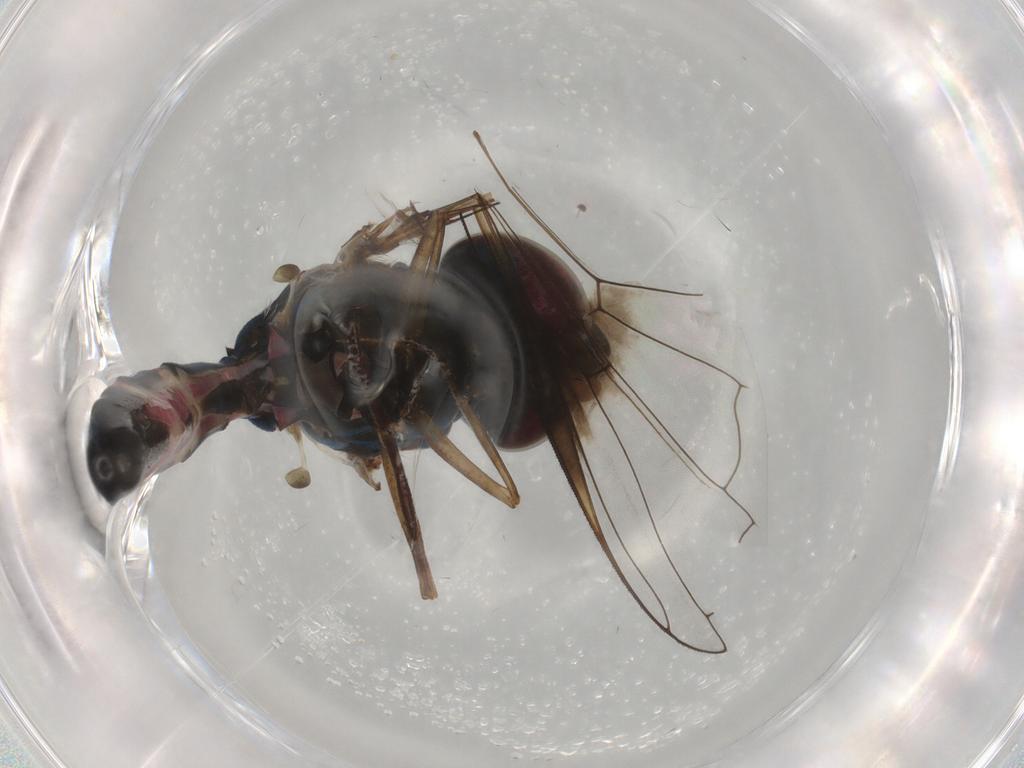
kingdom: Animalia
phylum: Arthropoda
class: Insecta
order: Diptera
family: Syrphidae
